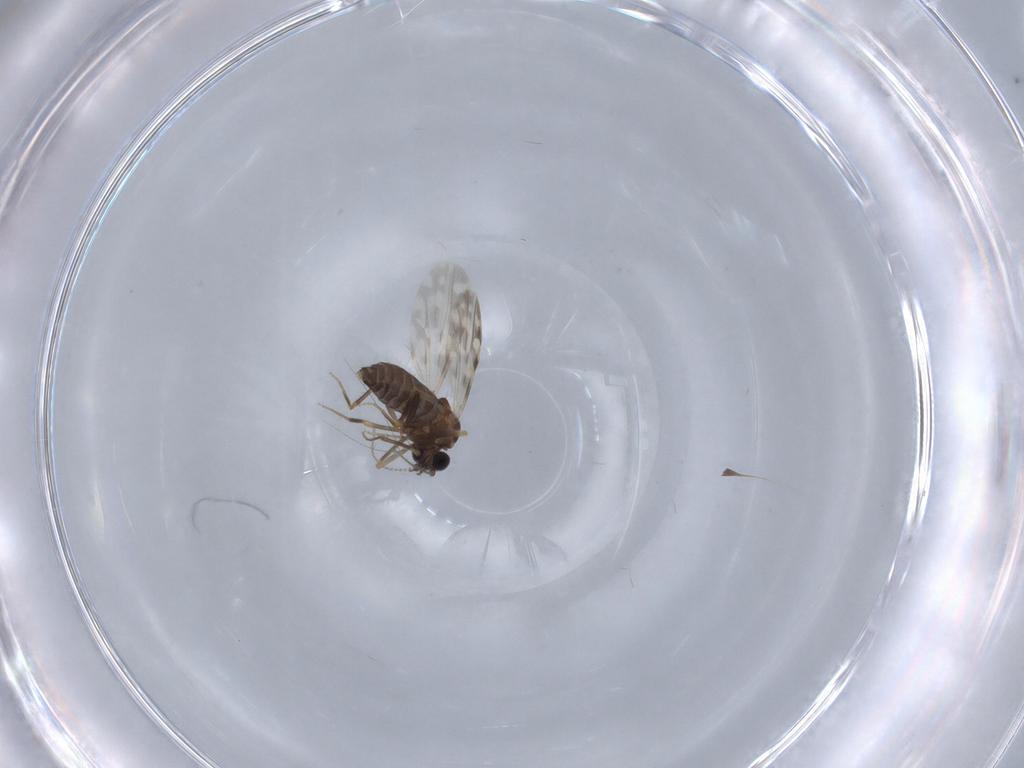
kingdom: Animalia
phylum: Arthropoda
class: Insecta
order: Diptera
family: Ceratopogonidae
